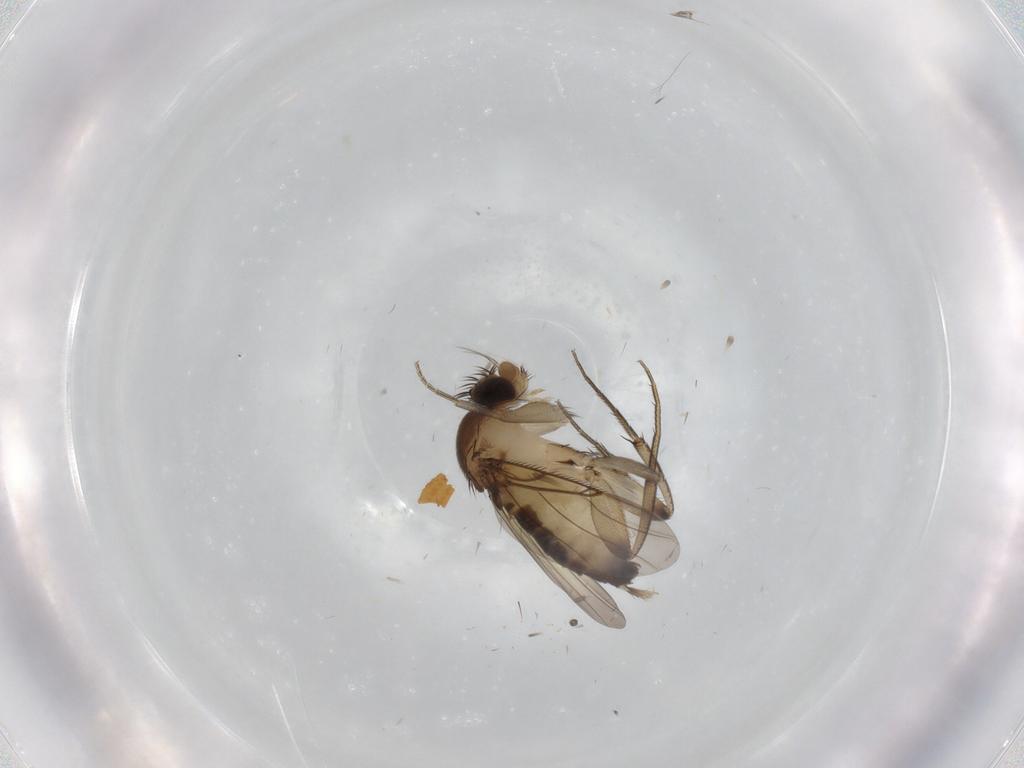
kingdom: Animalia
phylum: Arthropoda
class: Insecta
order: Diptera
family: Phoridae
